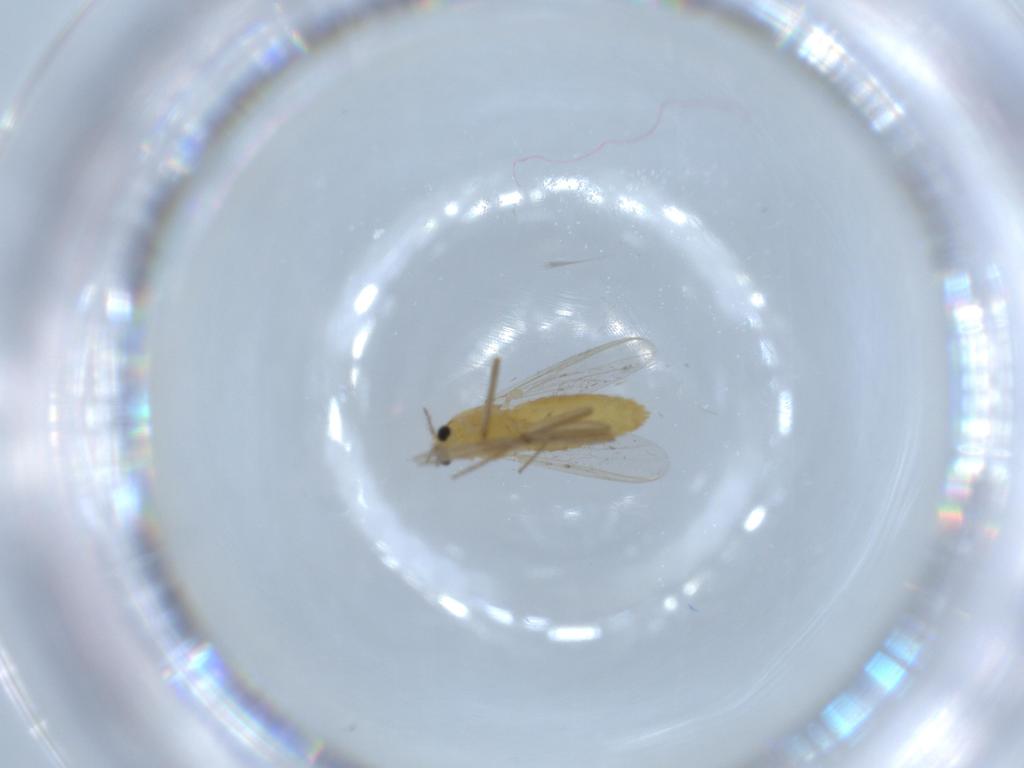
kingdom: Animalia
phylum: Arthropoda
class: Insecta
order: Diptera
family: Chironomidae
